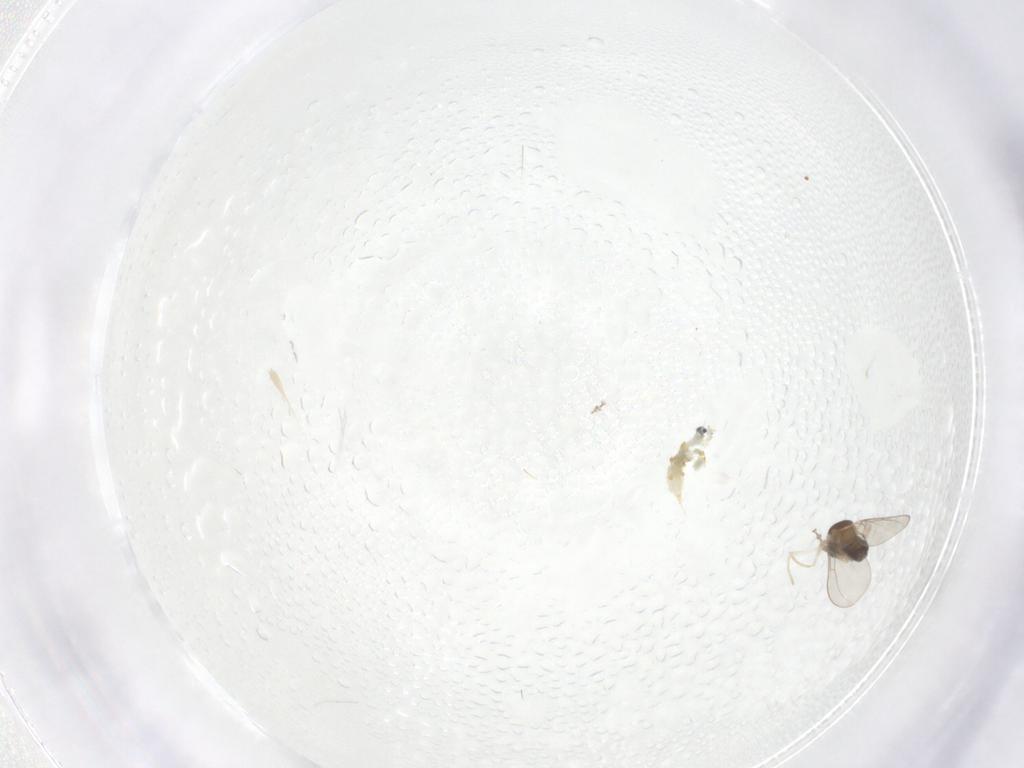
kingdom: Animalia
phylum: Arthropoda
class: Insecta
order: Diptera
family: Cecidomyiidae
